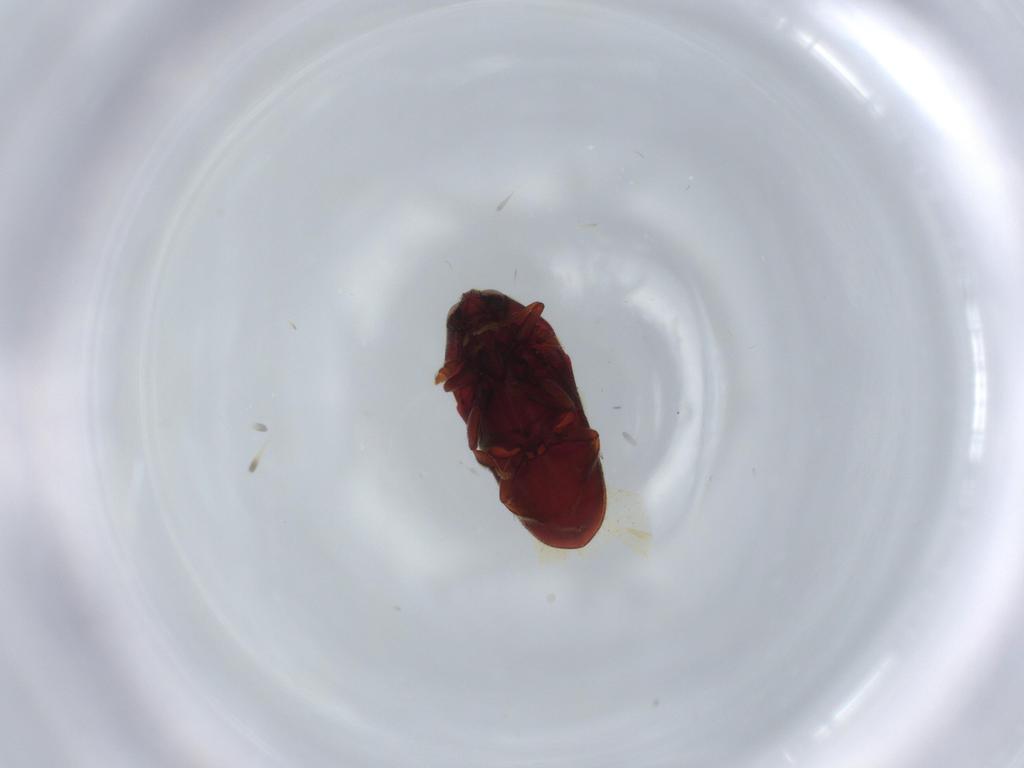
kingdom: Animalia
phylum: Arthropoda
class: Insecta
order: Coleoptera
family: Throscidae
